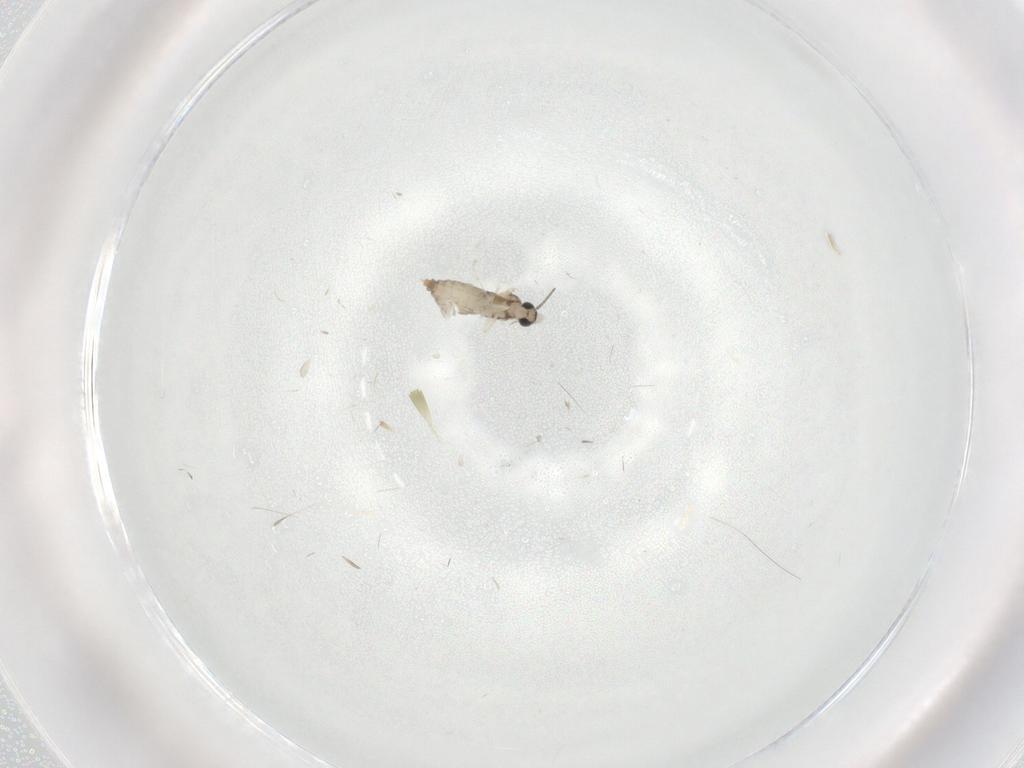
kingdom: Animalia
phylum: Arthropoda
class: Insecta
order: Diptera
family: Cecidomyiidae
